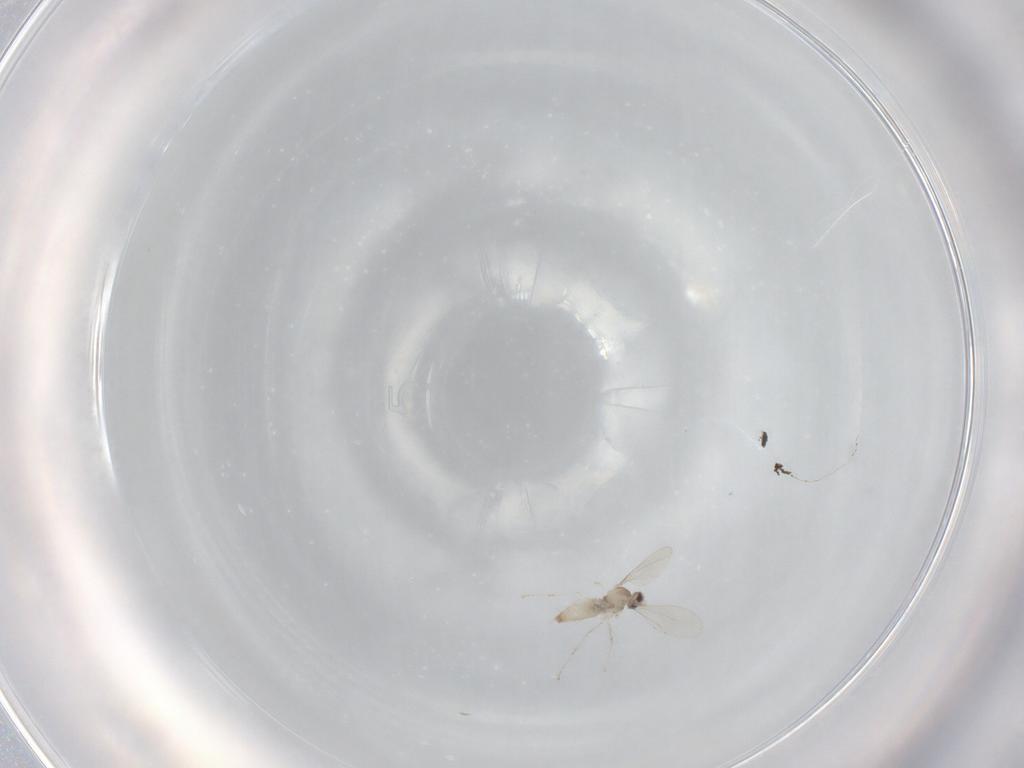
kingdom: Animalia
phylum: Arthropoda
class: Insecta
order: Diptera
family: Cecidomyiidae
